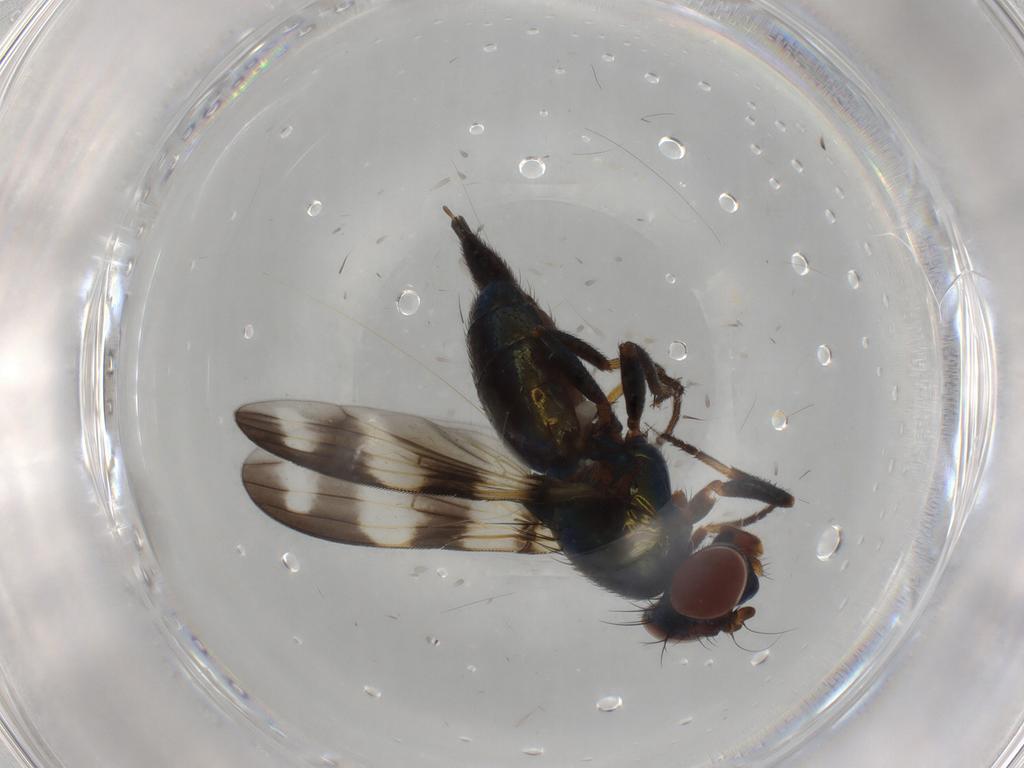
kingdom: Animalia
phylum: Arthropoda
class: Insecta
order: Diptera
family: Ulidiidae
